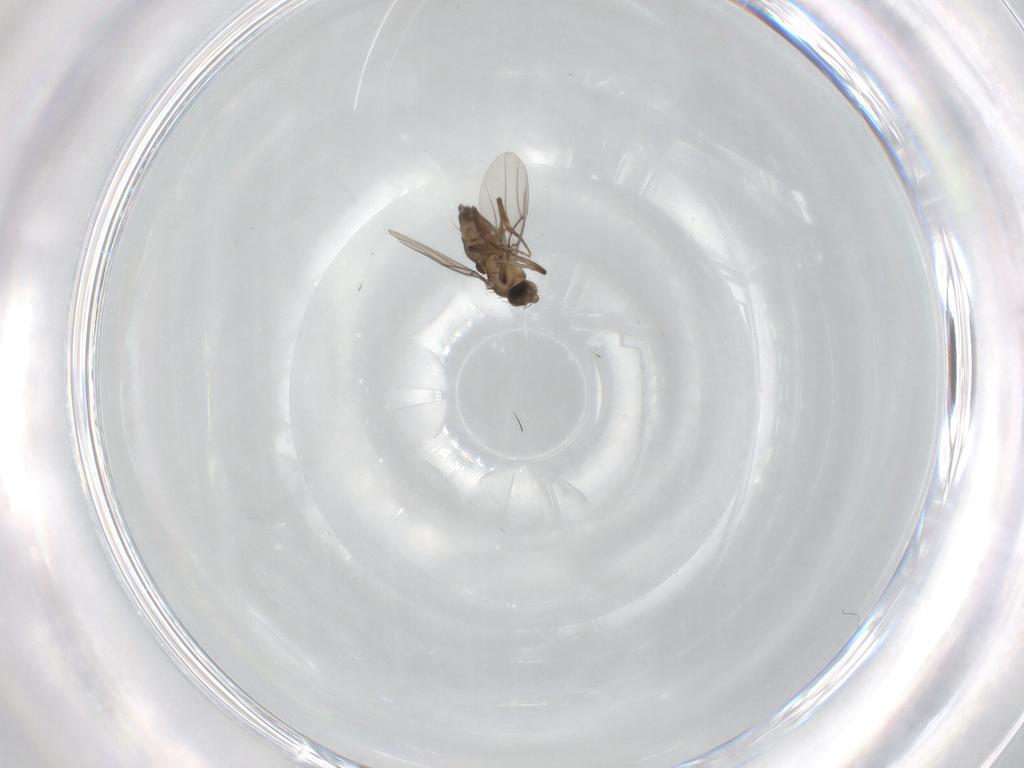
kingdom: Animalia
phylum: Arthropoda
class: Insecta
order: Diptera
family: Phoridae
